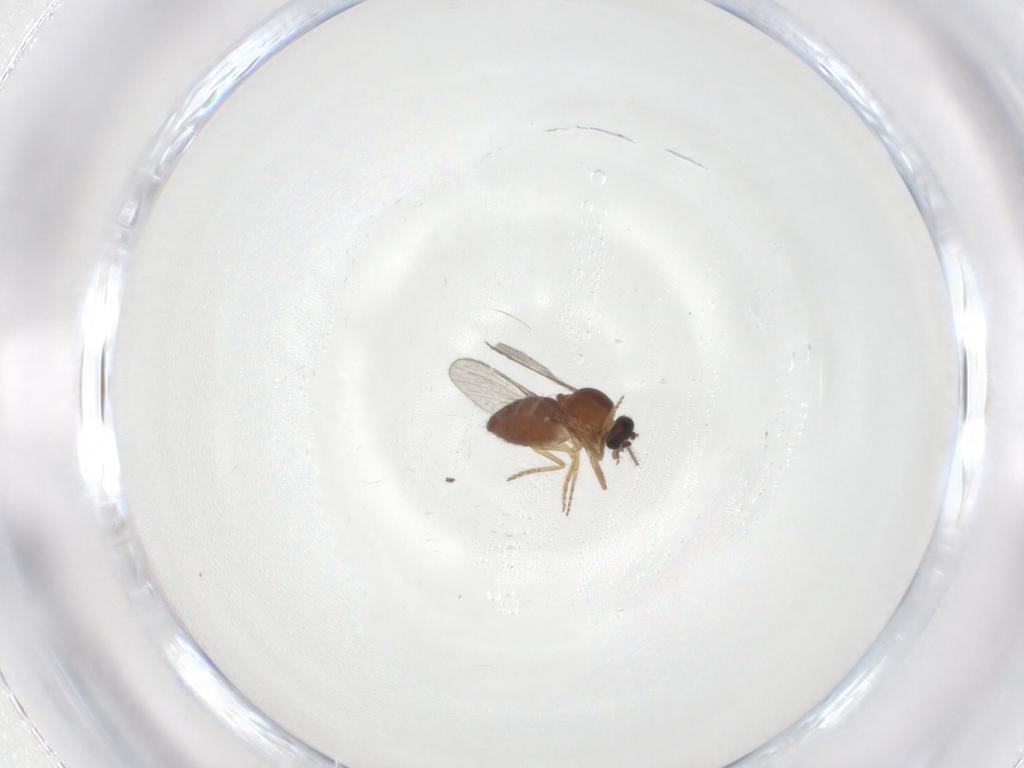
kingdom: Animalia
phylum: Arthropoda
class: Insecta
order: Diptera
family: Ceratopogonidae
